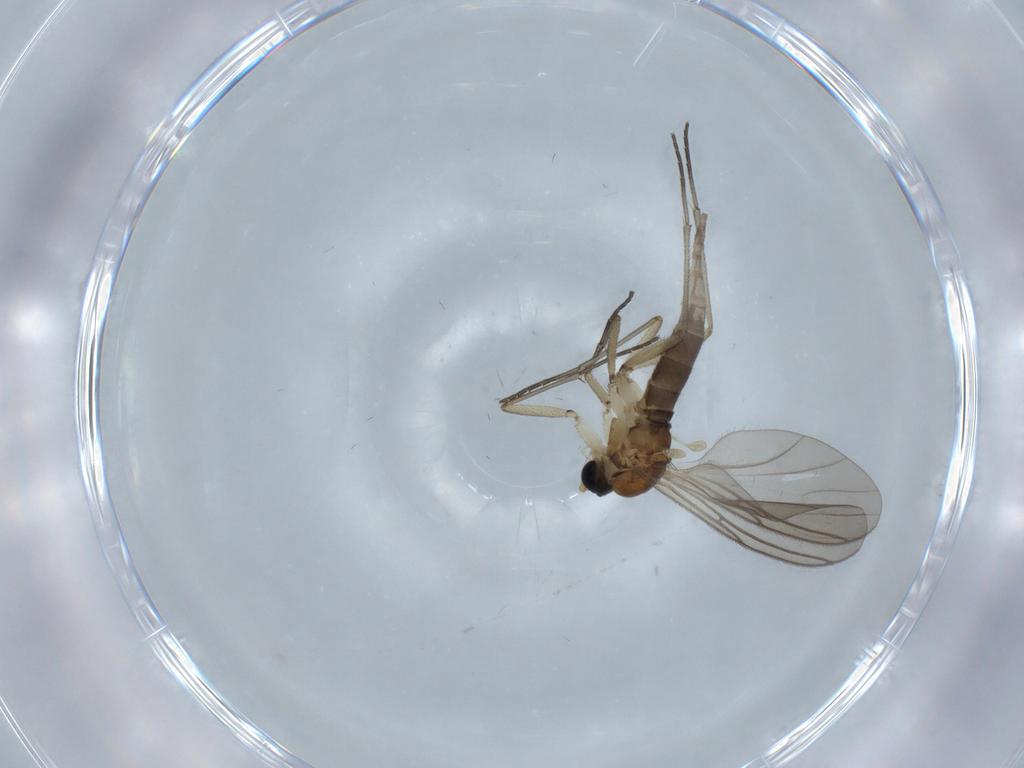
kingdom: Animalia
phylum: Arthropoda
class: Insecta
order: Diptera
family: Sciaridae
